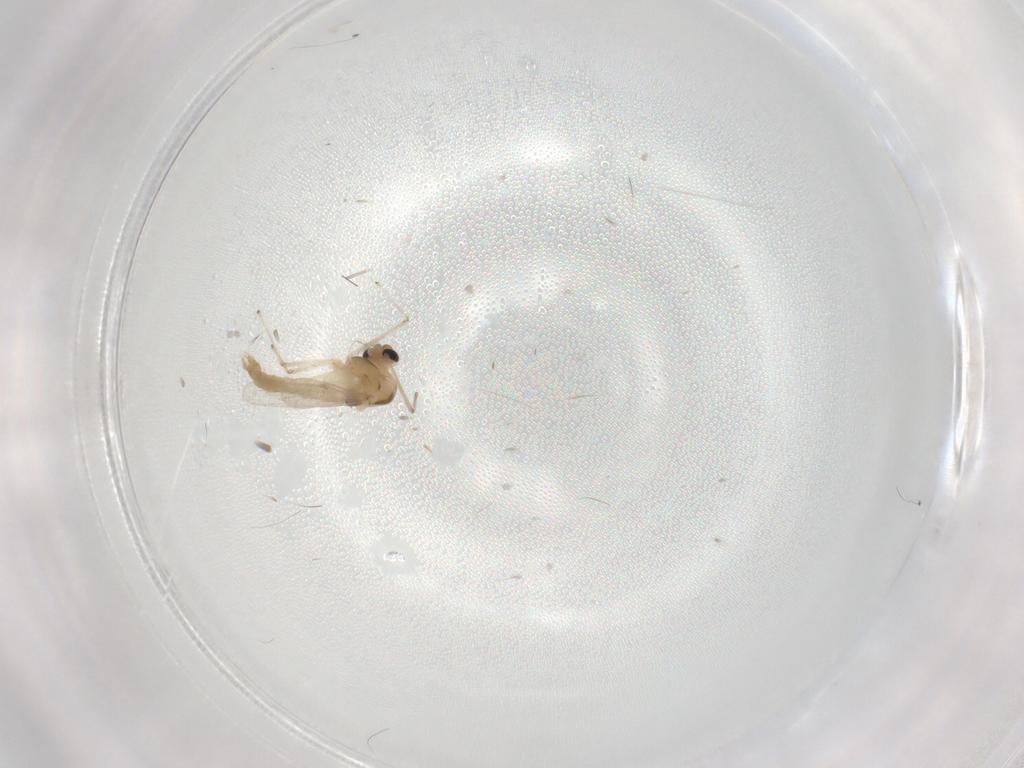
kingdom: Animalia
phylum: Arthropoda
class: Insecta
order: Diptera
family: Chironomidae
